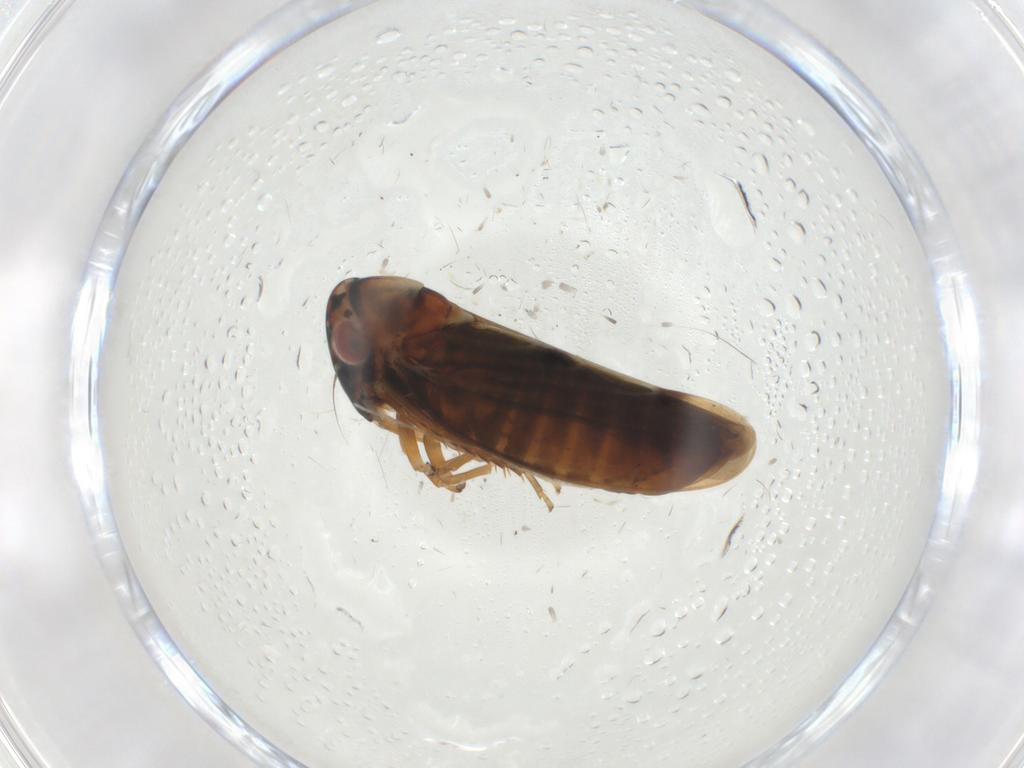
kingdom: Animalia
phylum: Arthropoda
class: Insecta
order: Hemiptera
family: Cicadellidae
